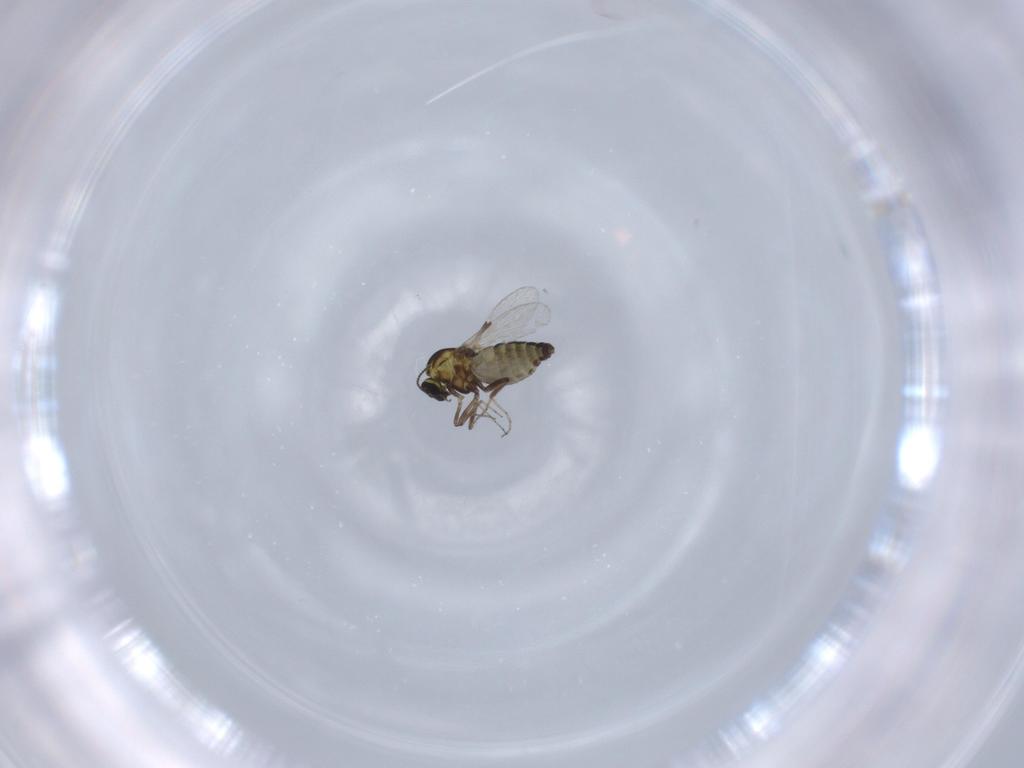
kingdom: Animalia
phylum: Arthropoda
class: Insecta
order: Diptera
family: Ceratopogonidae
